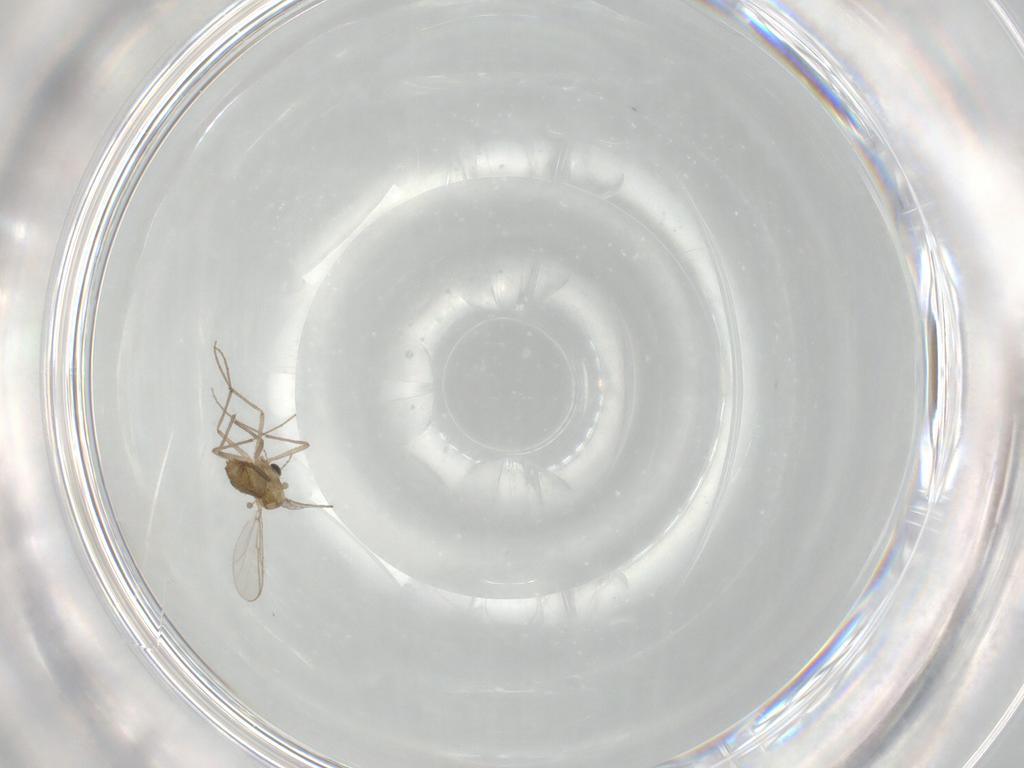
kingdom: Animalia
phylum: Arthropoda
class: Insecta
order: Diptera
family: Chironomidae
